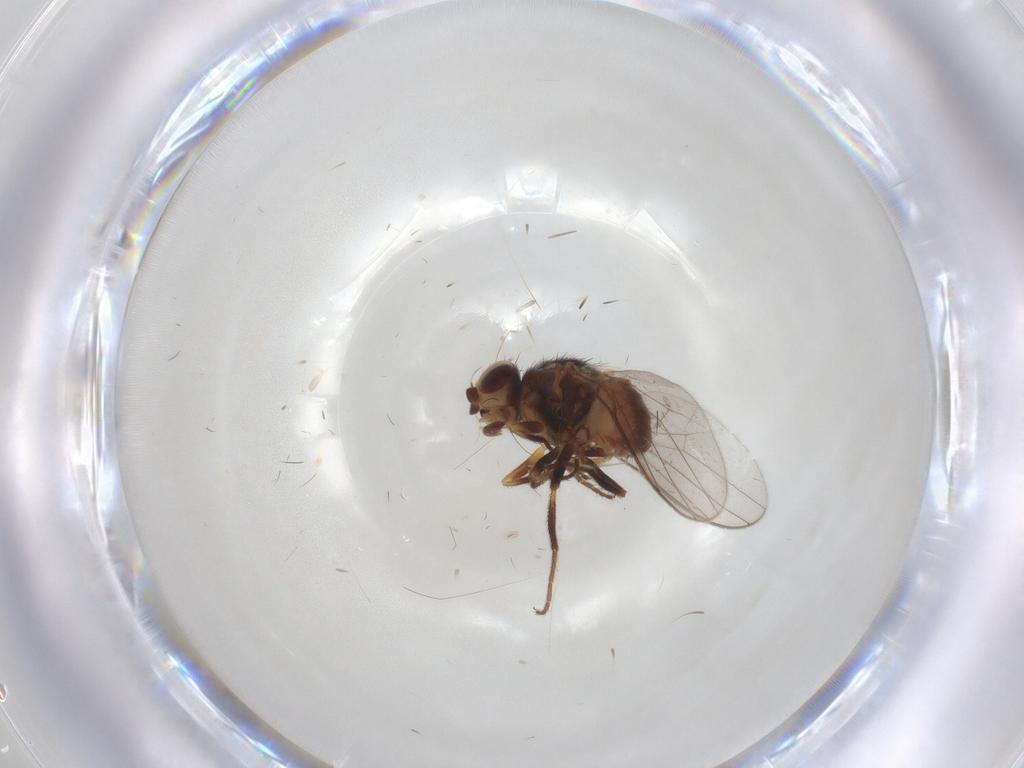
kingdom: Animalia
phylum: Arthropoda
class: Insecta
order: Diptera
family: Chloropidae
